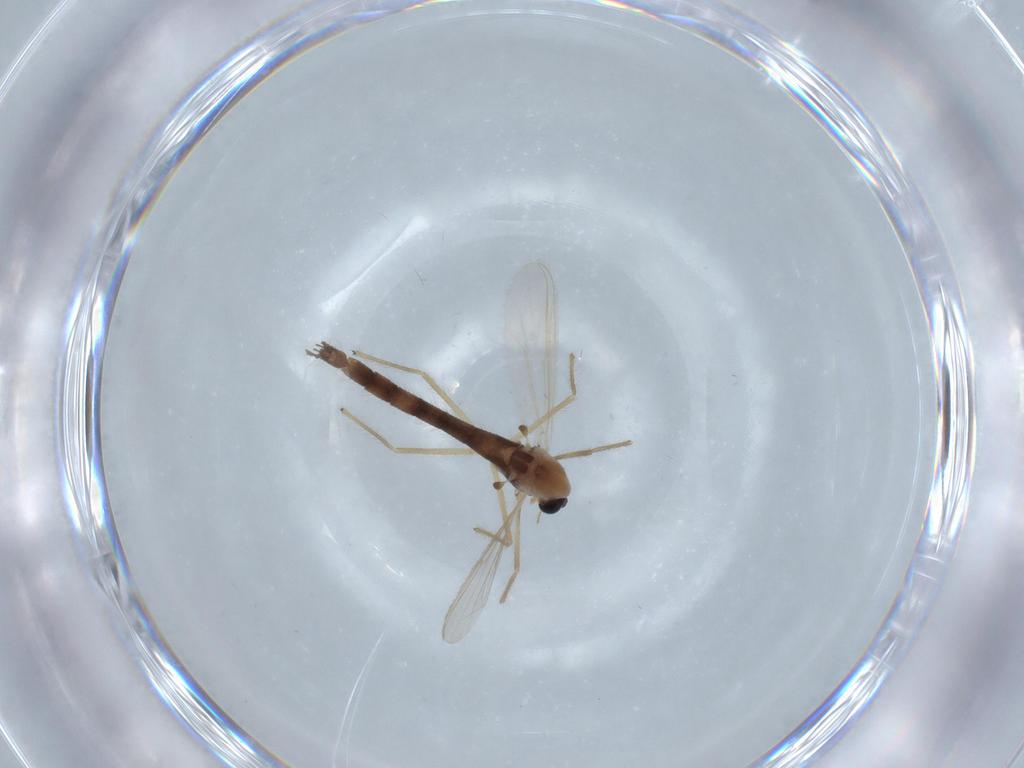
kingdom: Animalia
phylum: Arthropoda
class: Insecta
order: Diptera
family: Chironomidae
